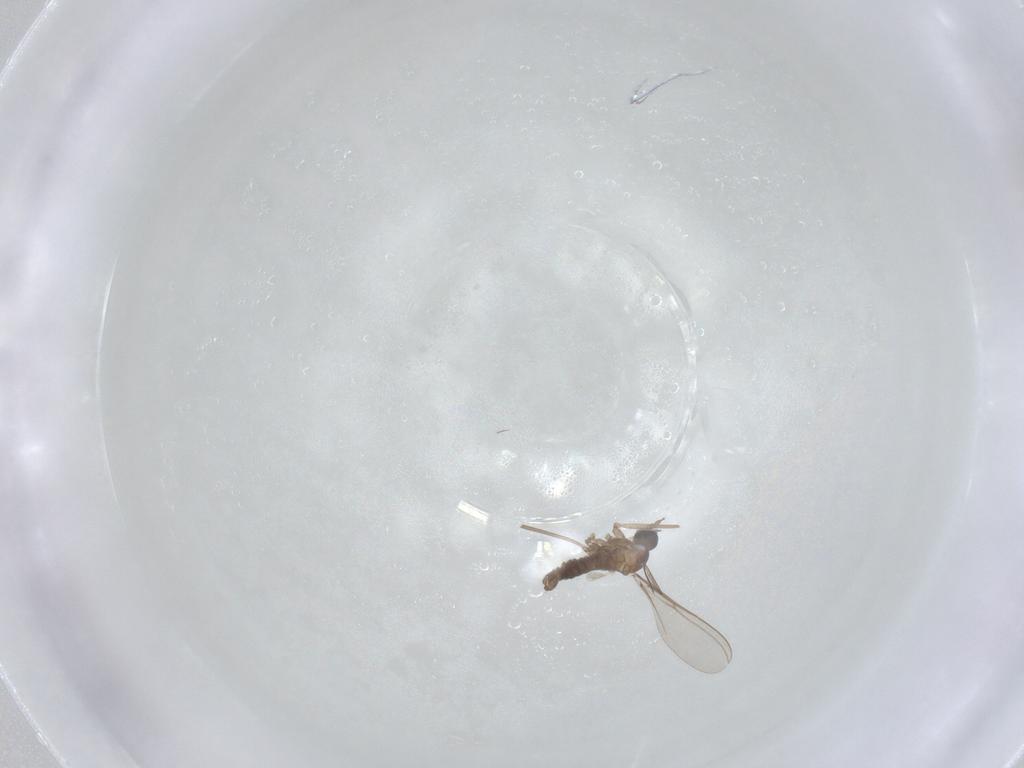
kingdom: Animalia
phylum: Arthropoda
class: Insecta
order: Diptera
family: Cecidomyiidae
